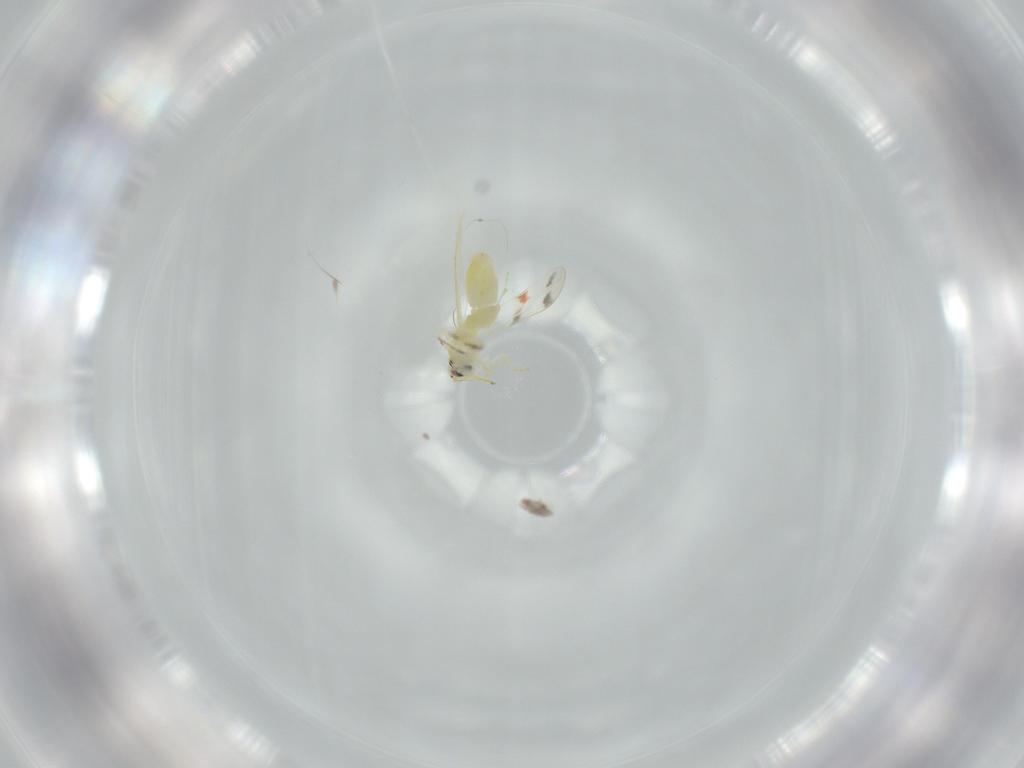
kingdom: Animalia
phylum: Arthropoda
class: Insecta
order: Hemiptera
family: Aleyrodidae
